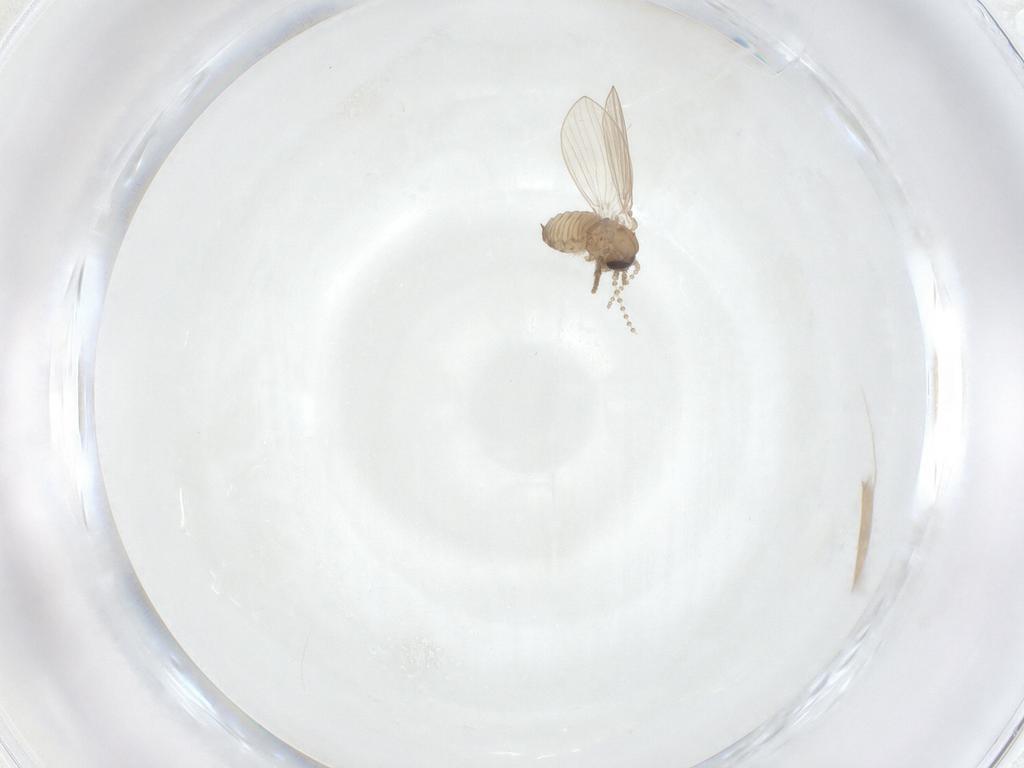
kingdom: Animalia
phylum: Arthropoda
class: Insecta
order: Diptera
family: Psychodidae
